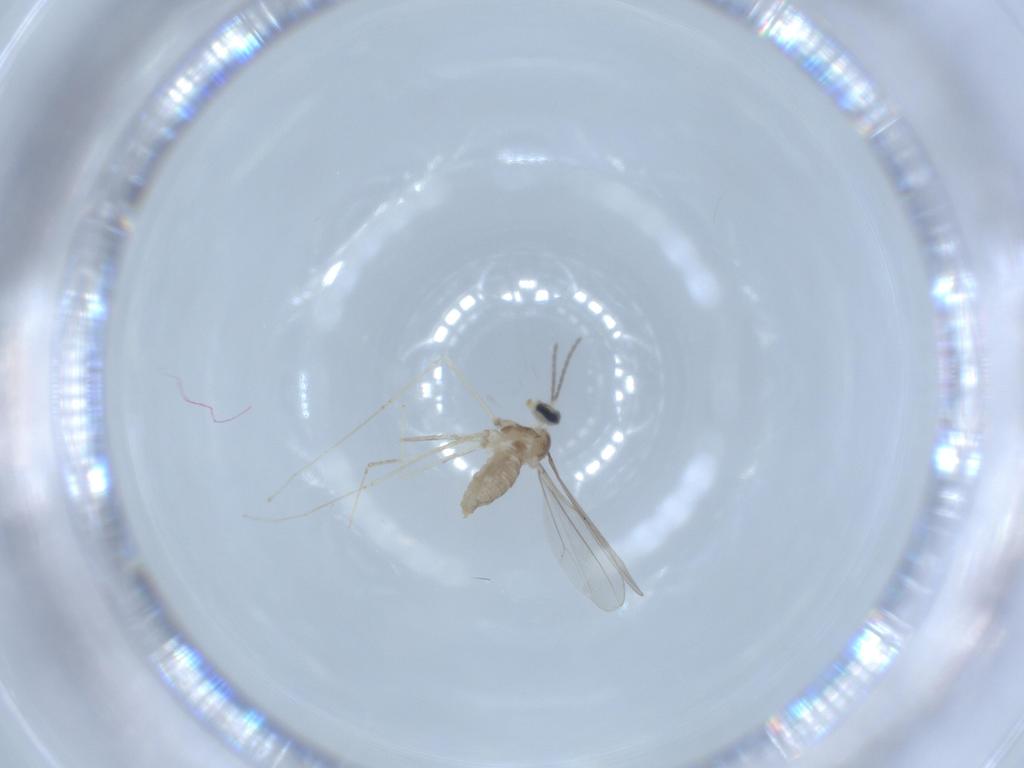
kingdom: Animalia
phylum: Arthropoda
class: Insecta
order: Diptera
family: Cecidomyiidae
